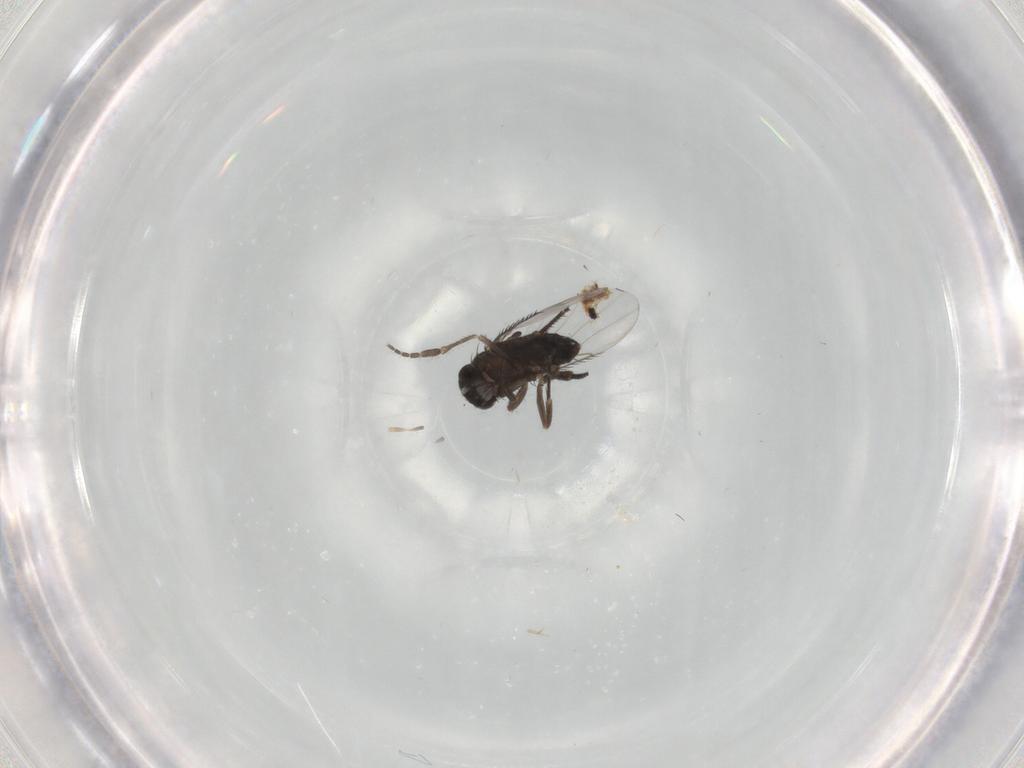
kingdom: Animalia
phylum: Arthropoda
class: Insecta
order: Diptera
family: Phoridae
